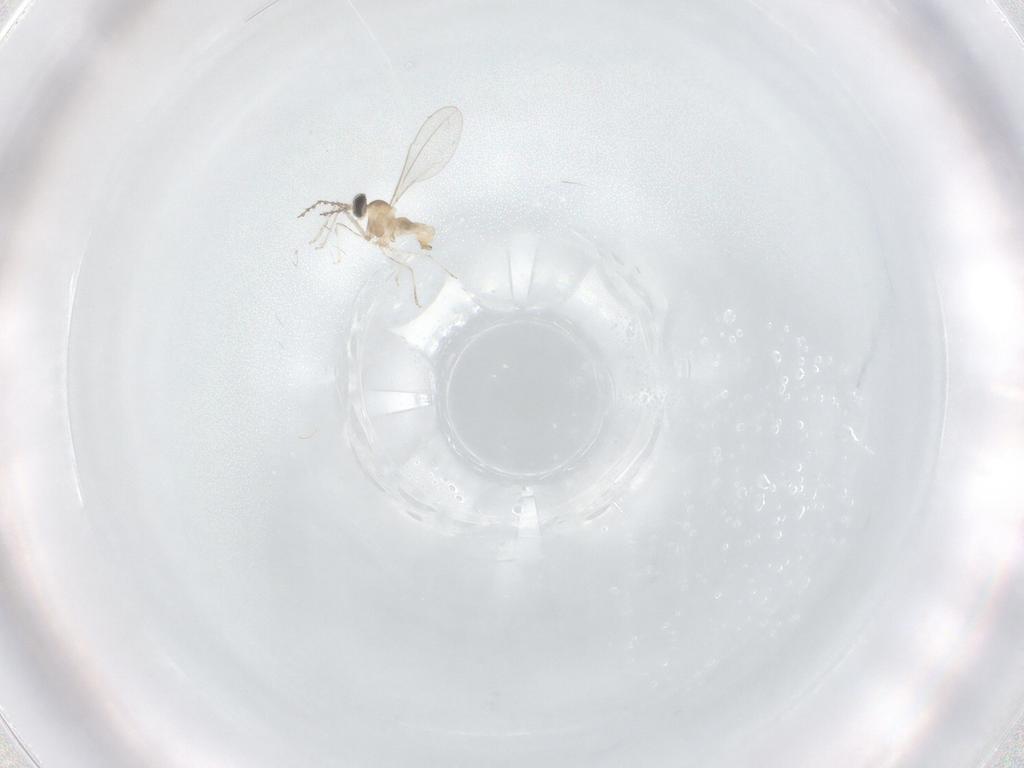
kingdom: Animalia
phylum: Arthropoda
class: Insecta
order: Diptera
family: Cecidomyiidae
